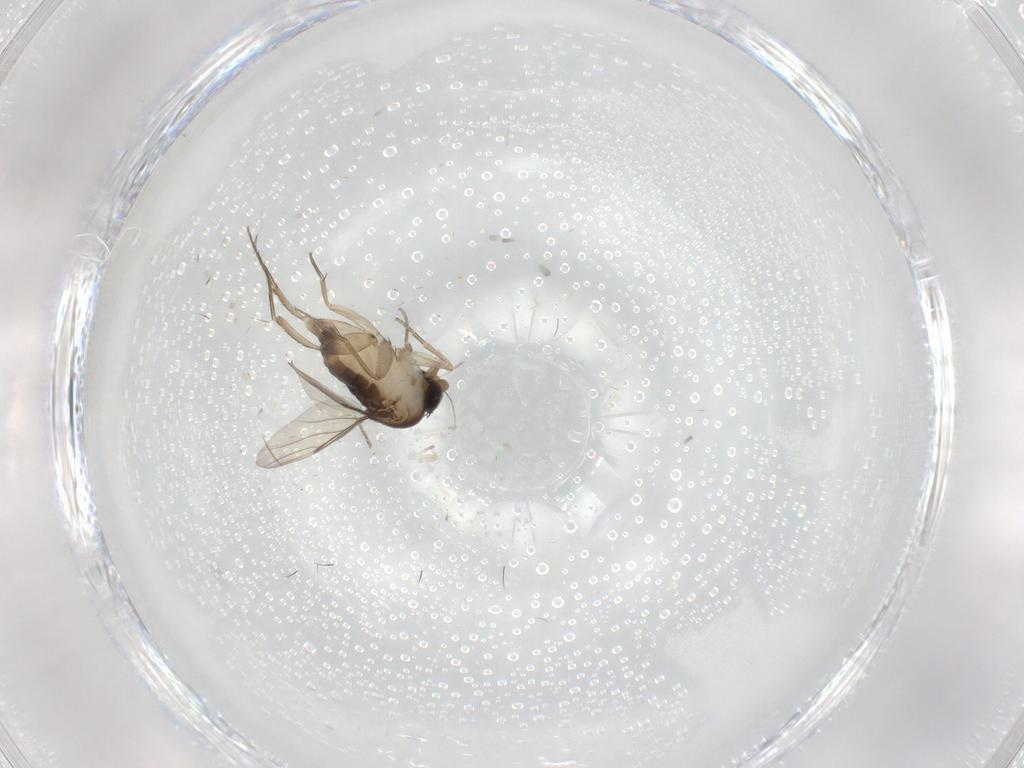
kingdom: Animalia
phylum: Arthropoda
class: Insecta
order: Diptera
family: Phoridae
